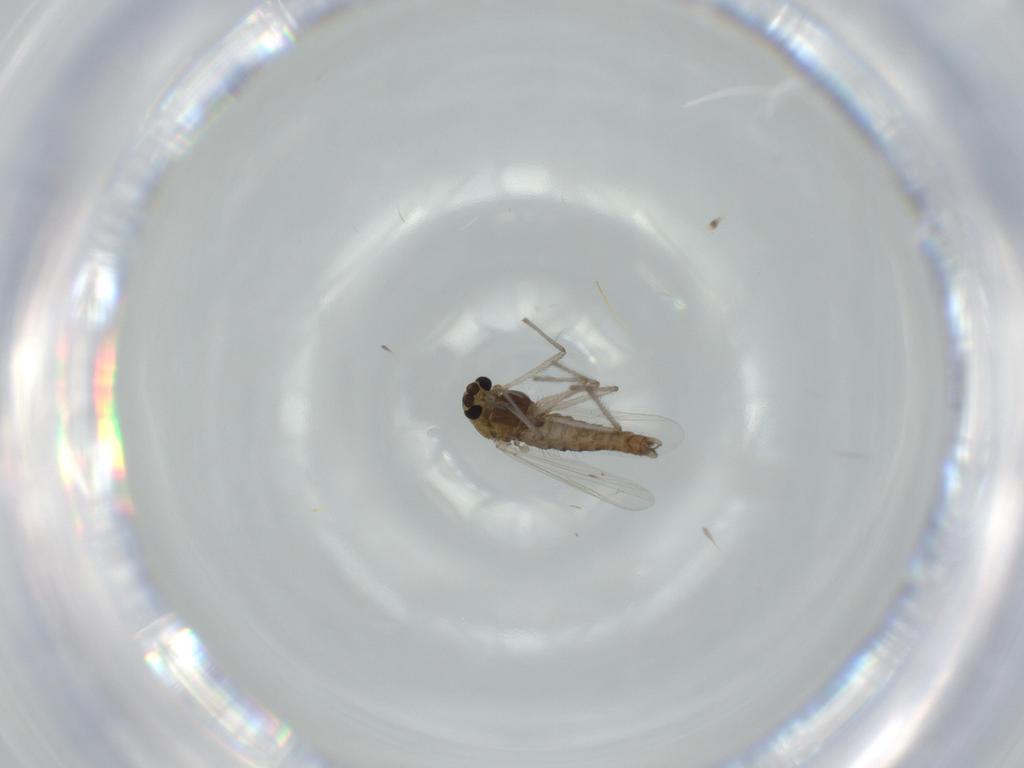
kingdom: Animalia
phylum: Arthropoda
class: Insecta
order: Diptera
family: Chironomidae
